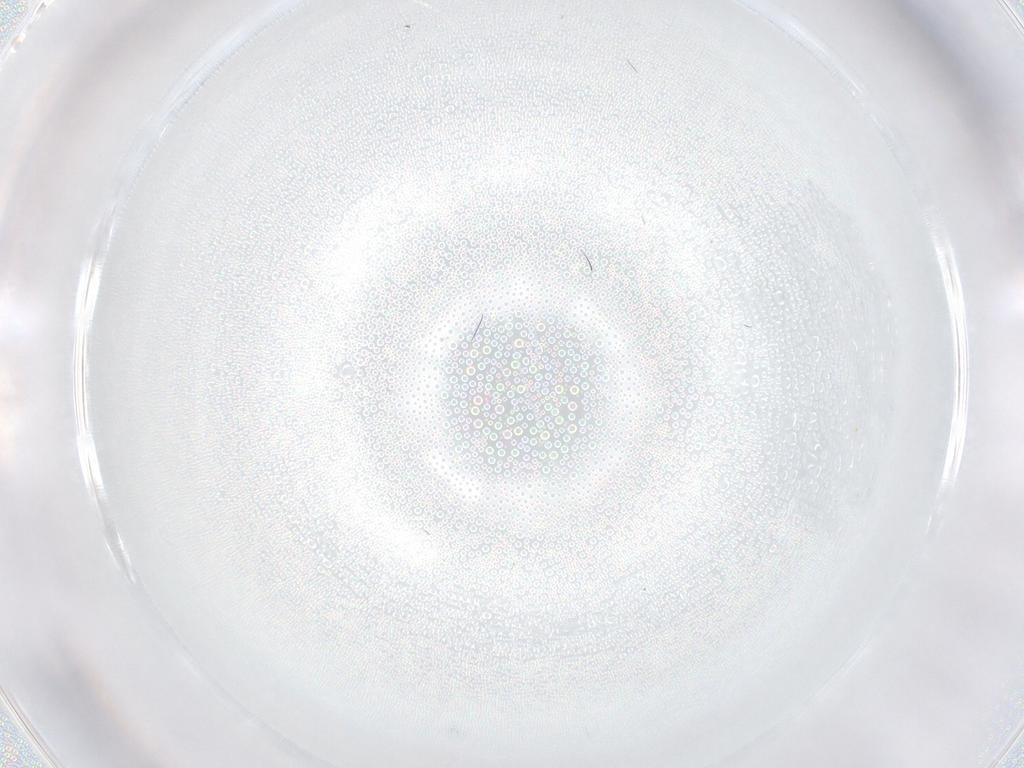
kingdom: Animalia
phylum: Arthropoda
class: Insecta
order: Diptera
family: Psychodidae
